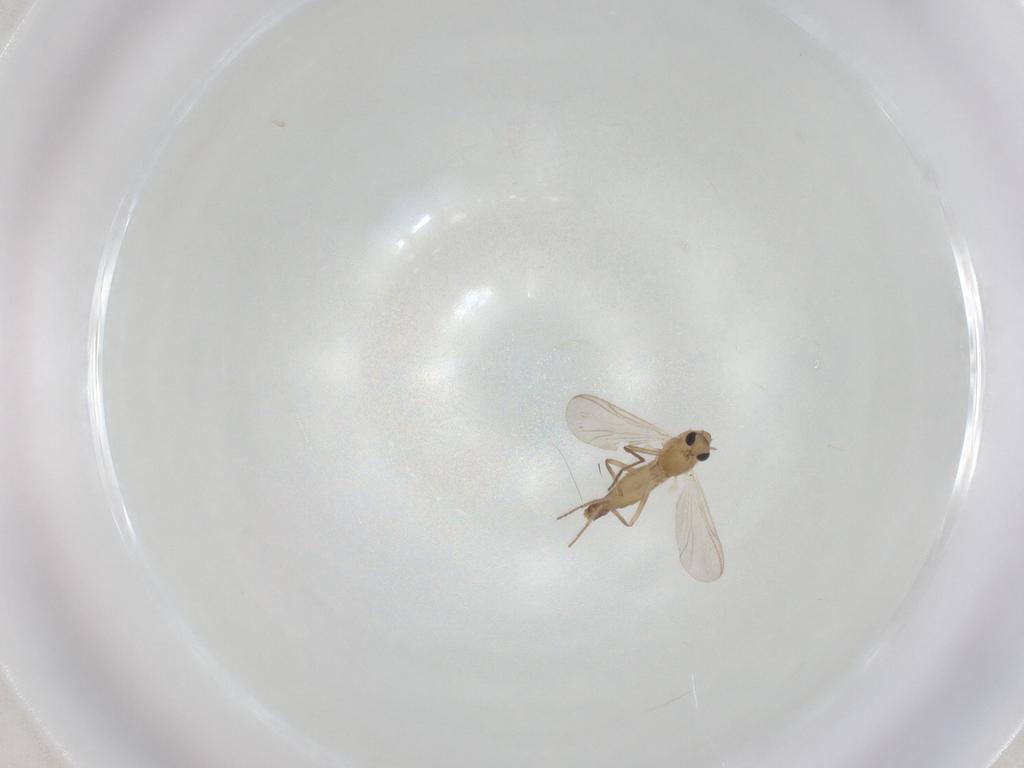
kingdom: Animalia
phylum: Arthropoda
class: Insecta
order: Diptera
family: Chironomidae
